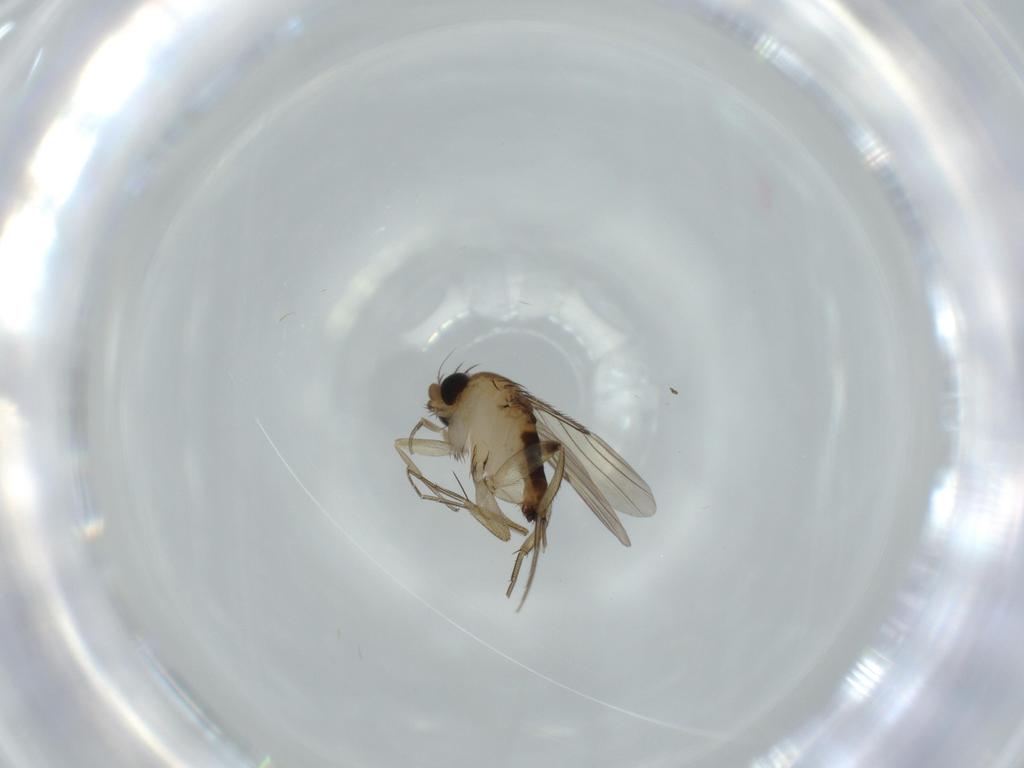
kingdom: Animalia
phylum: Arthropoda
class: Insecta
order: Diptera
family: Phoridae
